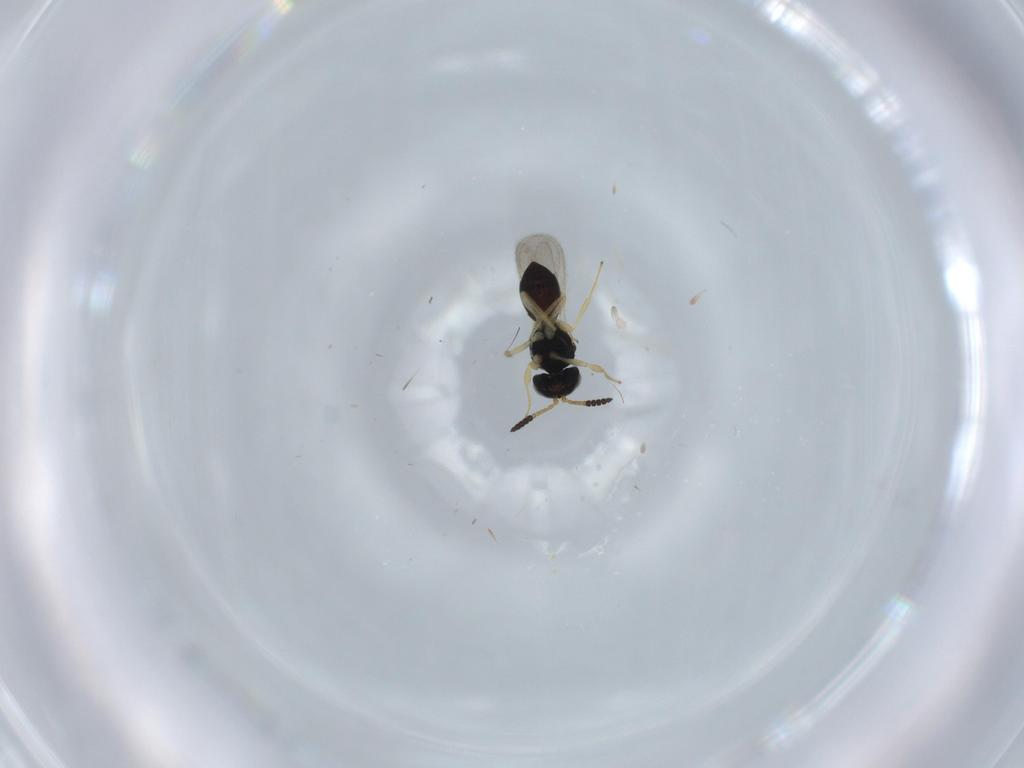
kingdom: Animalia
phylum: Arthropoda
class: Insecta
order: Hymenoptera
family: Scelionidae
